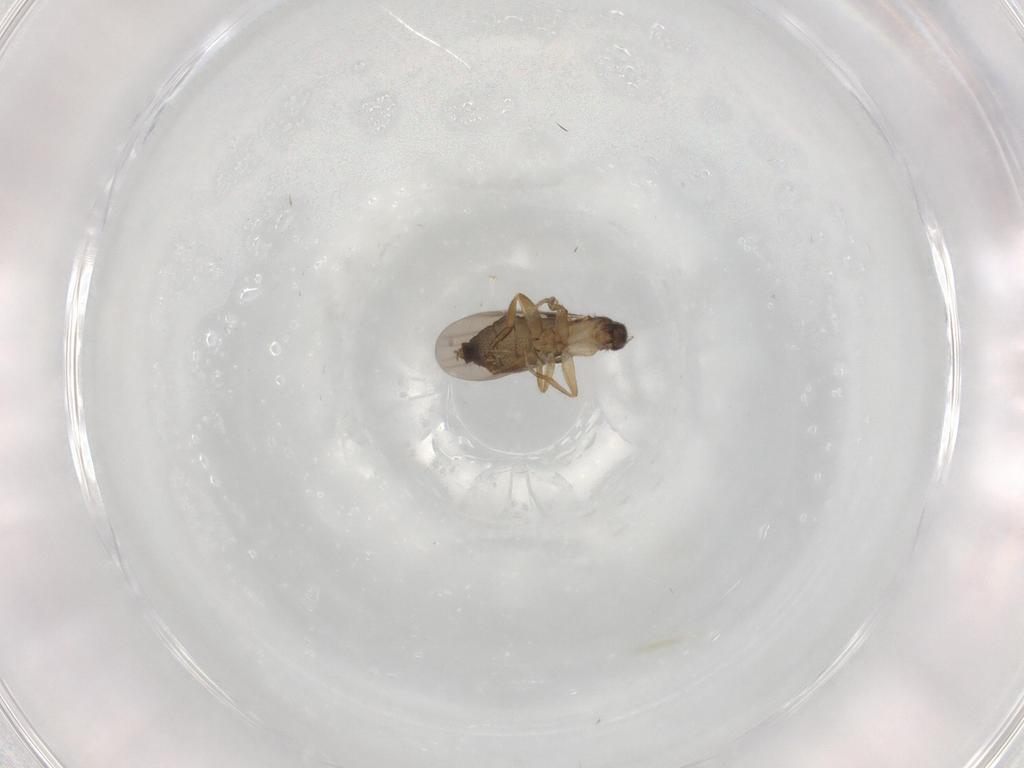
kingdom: Animalia
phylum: Arthropoda
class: Insecta
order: Diptera
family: Phoridae
